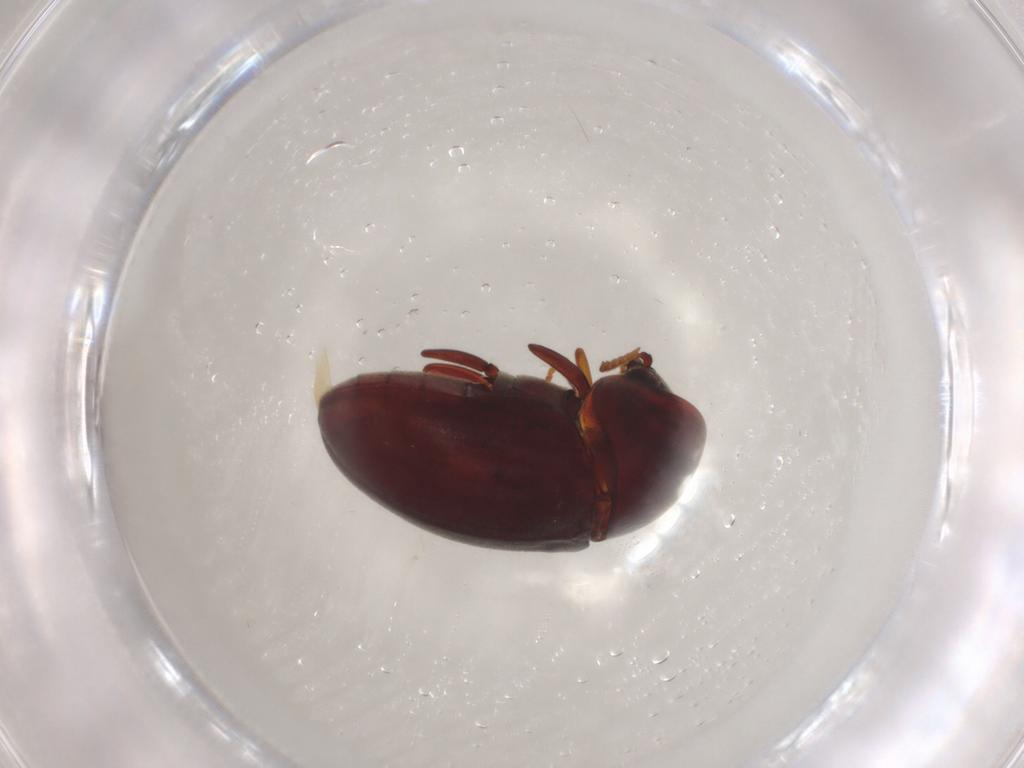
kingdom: Animalia
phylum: Arthropoda
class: Insecta
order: Coleoptera
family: Ptinidae
